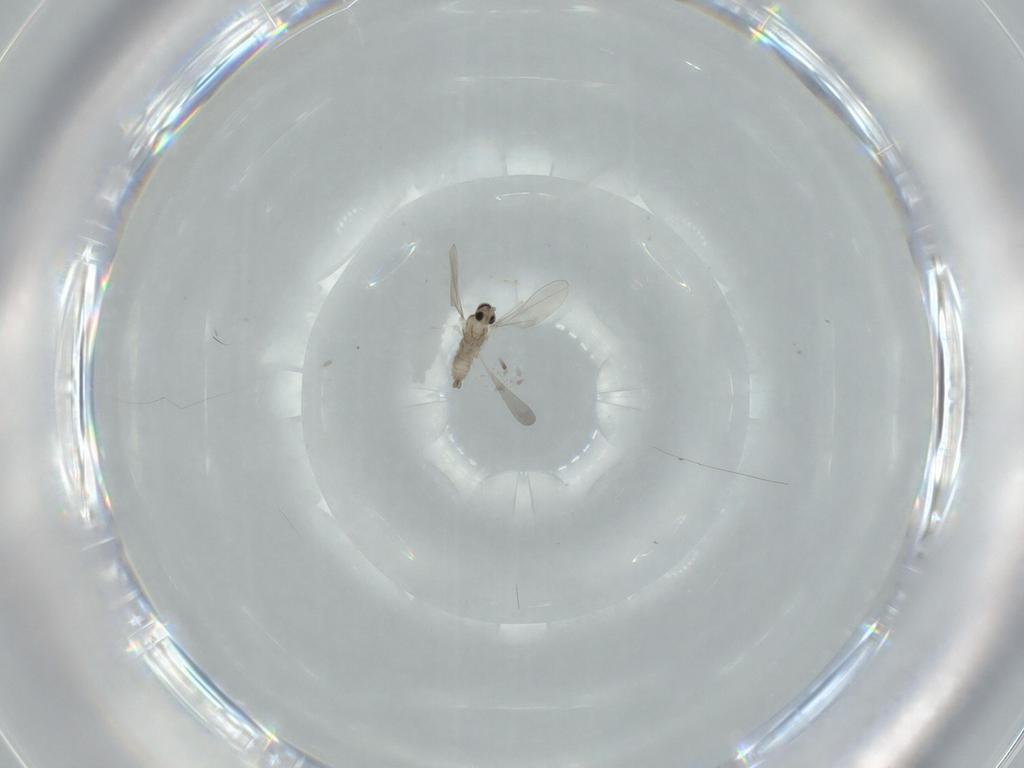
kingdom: Animalia
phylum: Arthropoda
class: Insecta
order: Diptera
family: Cecidomyiidae
